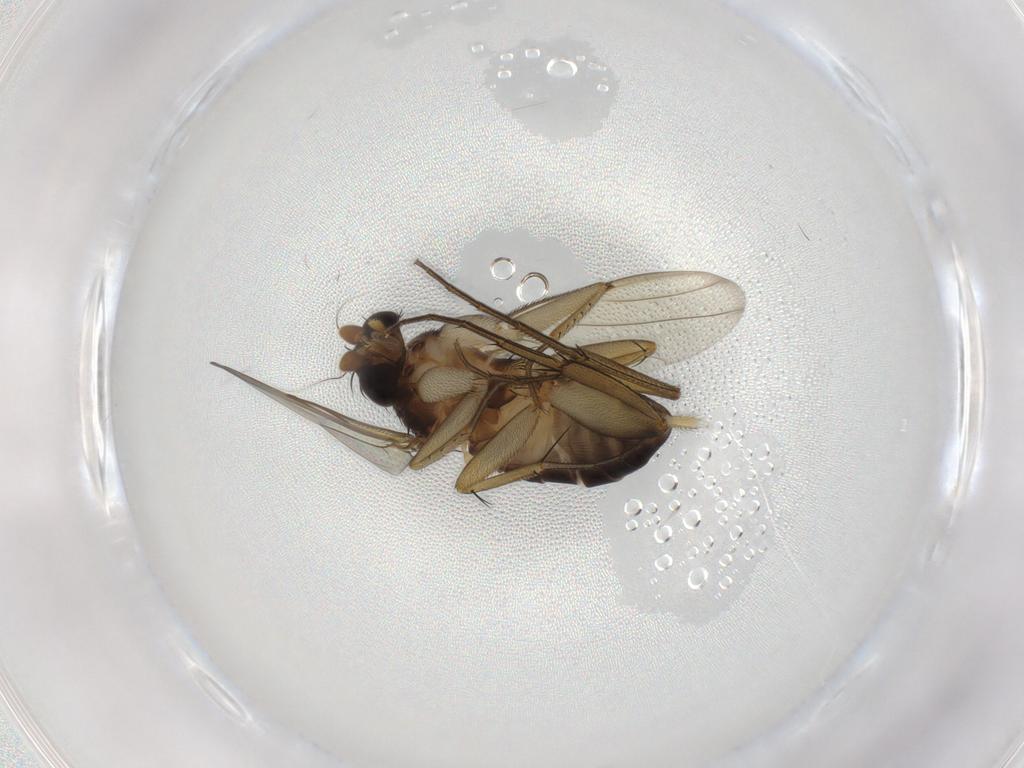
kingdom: Animalia
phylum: Arthropoda
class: Insecta
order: Diptera
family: Phoridae
